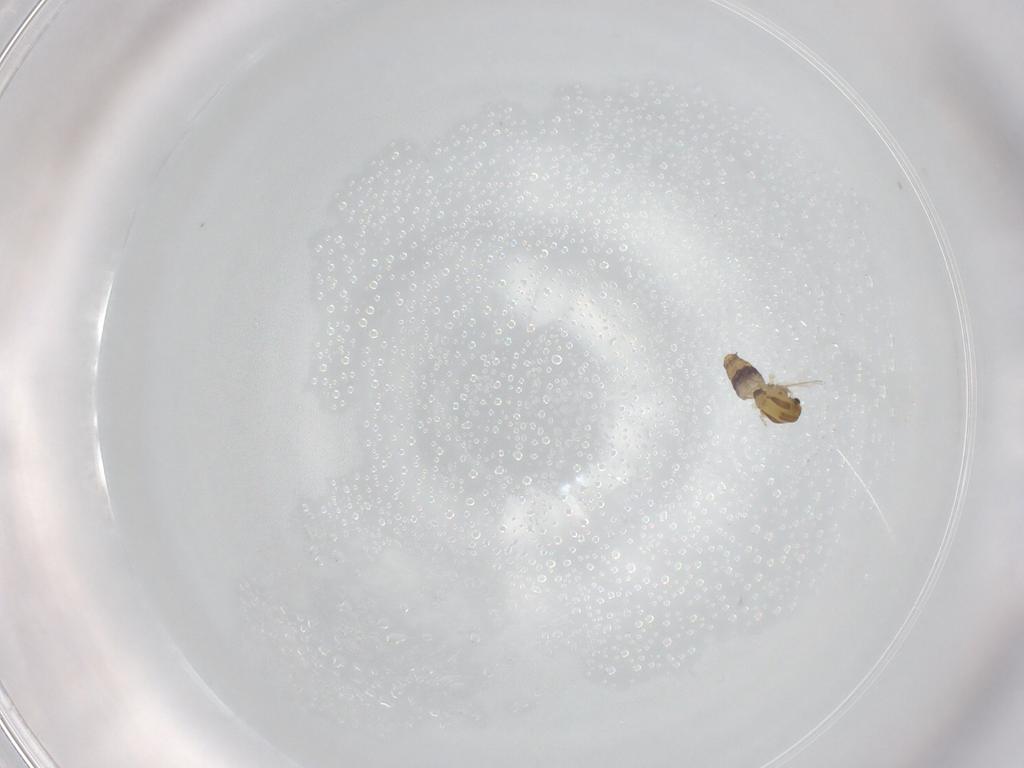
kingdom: Animalia
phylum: Arthropoda
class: Insecta
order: Diptera
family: Chironomidae
